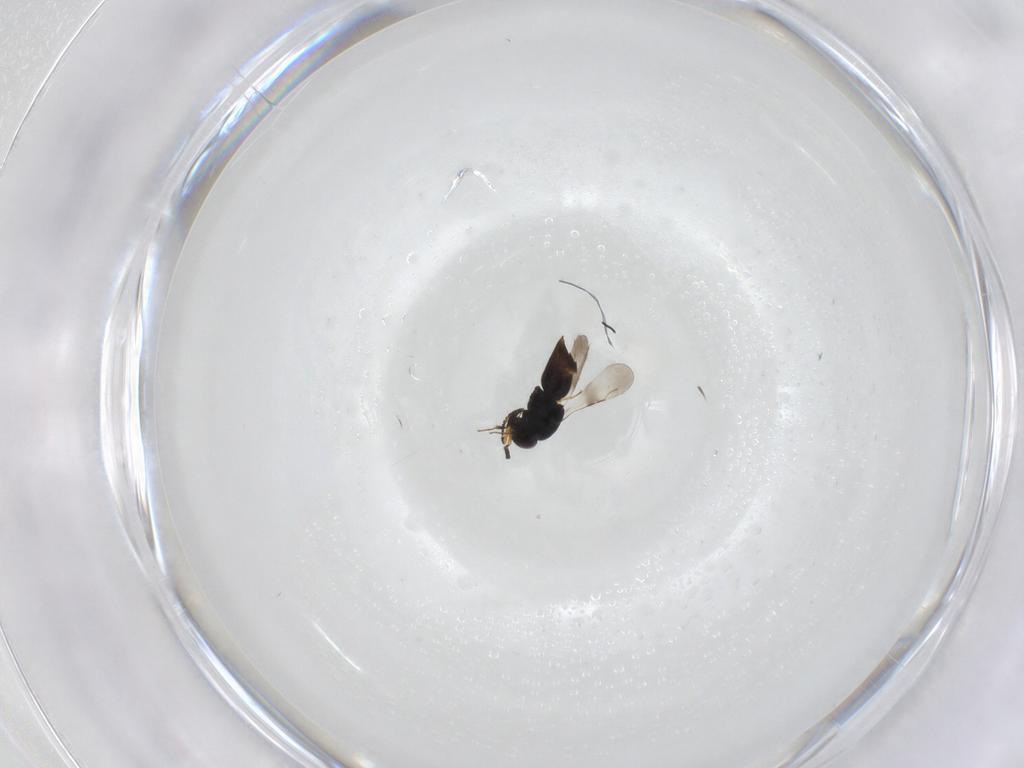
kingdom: Animalia
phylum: Arthropoda
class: Insecta
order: Hymenoptera
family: Ceraphronidae
